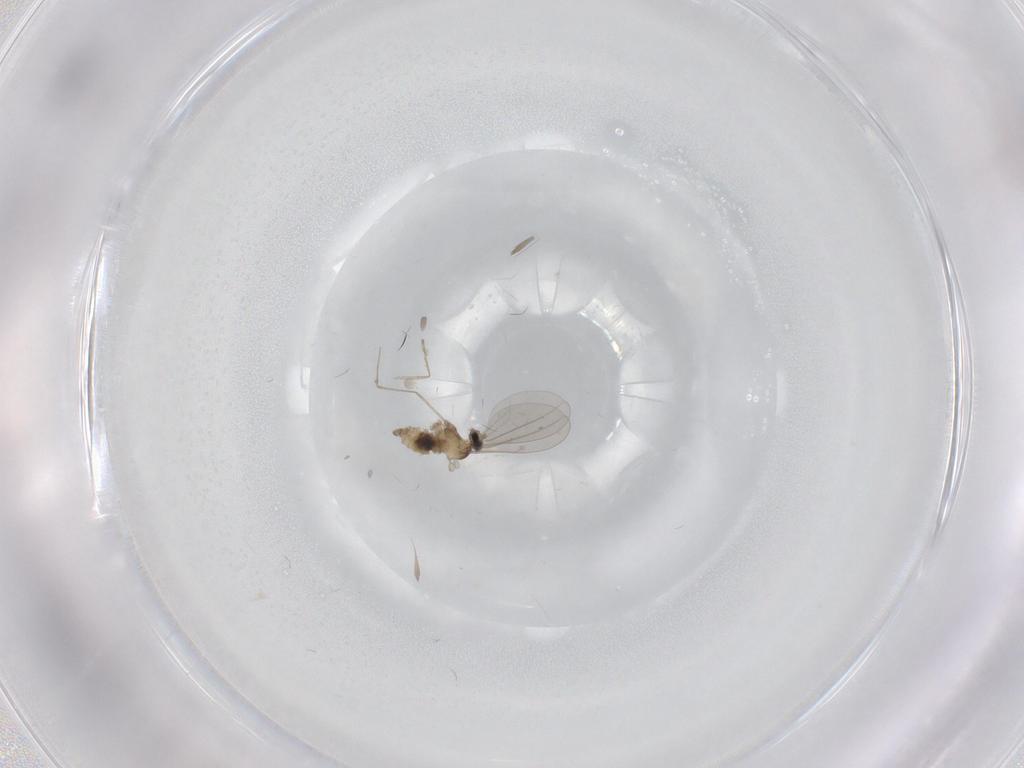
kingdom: Animalia
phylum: Arthropoda
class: Insecta
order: Diptera
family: Cecidomyiidae
